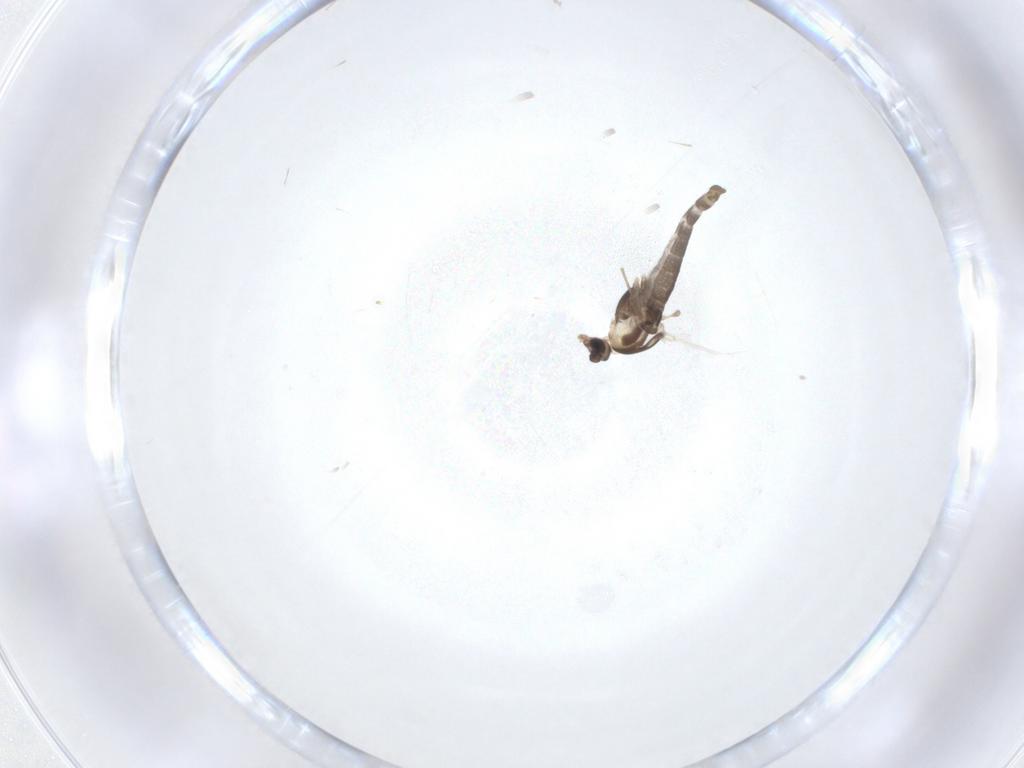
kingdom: Animalia
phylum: Arthropoda
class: Insecta
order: Diptera
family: Chironomidae
